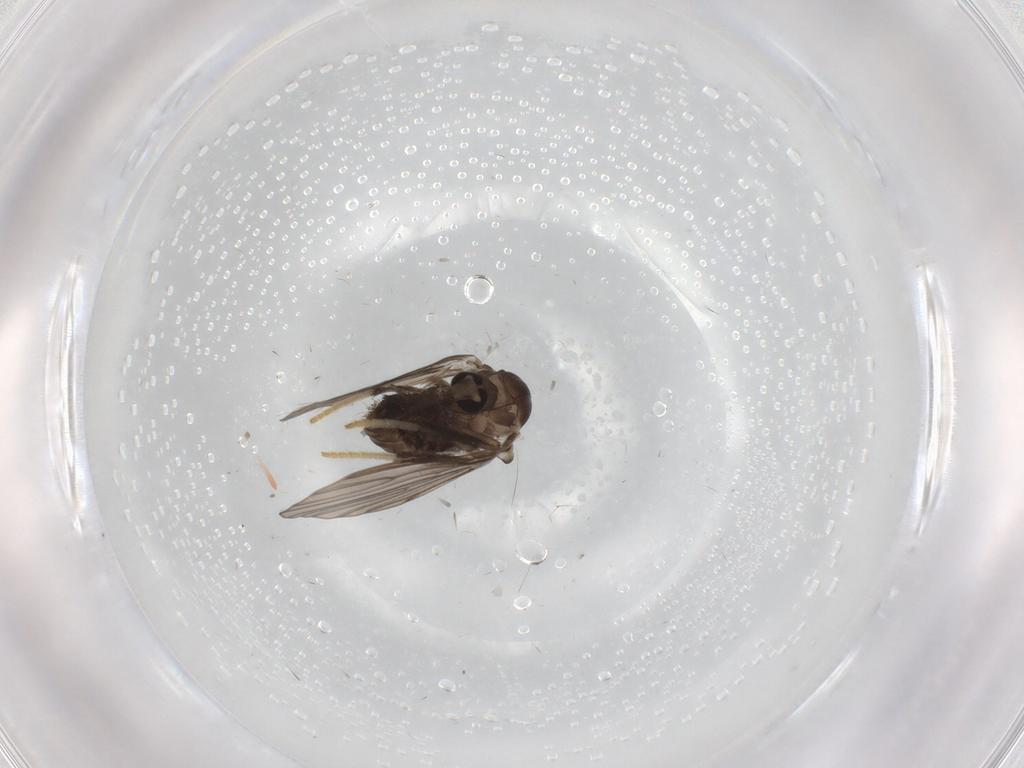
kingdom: Animalia
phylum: Arthropoda
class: Insecta
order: Diptera
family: Psychodidae
